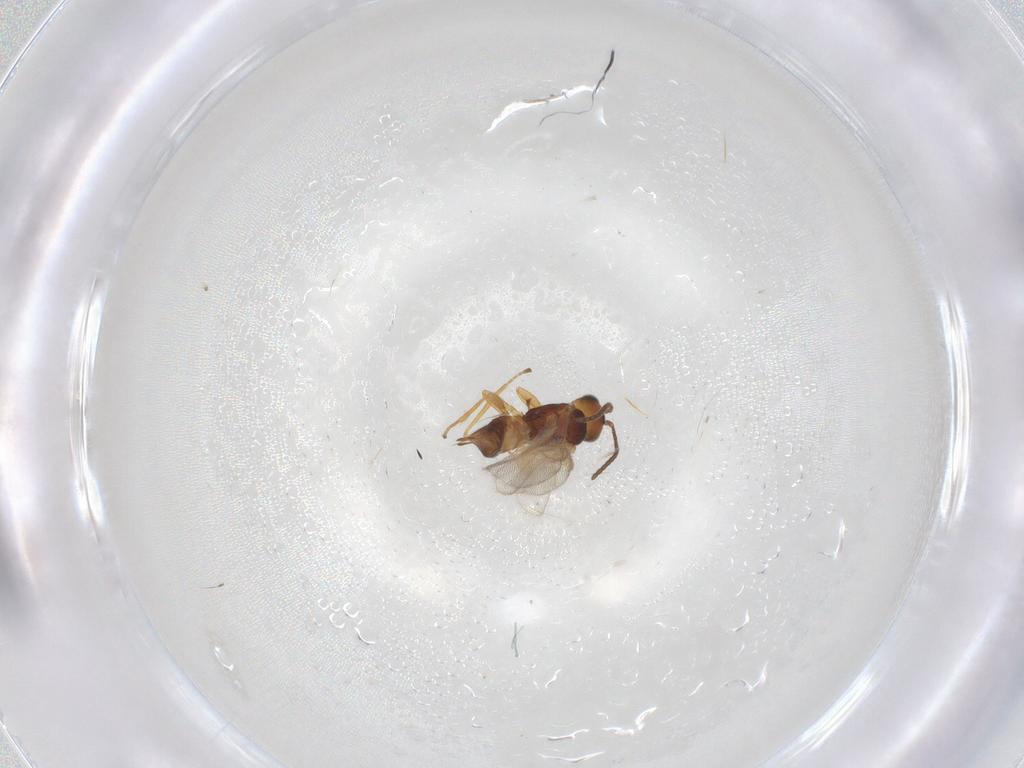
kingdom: Animalia
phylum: Arthropoda
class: Insecta
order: Hymenoptera
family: Braconidae
